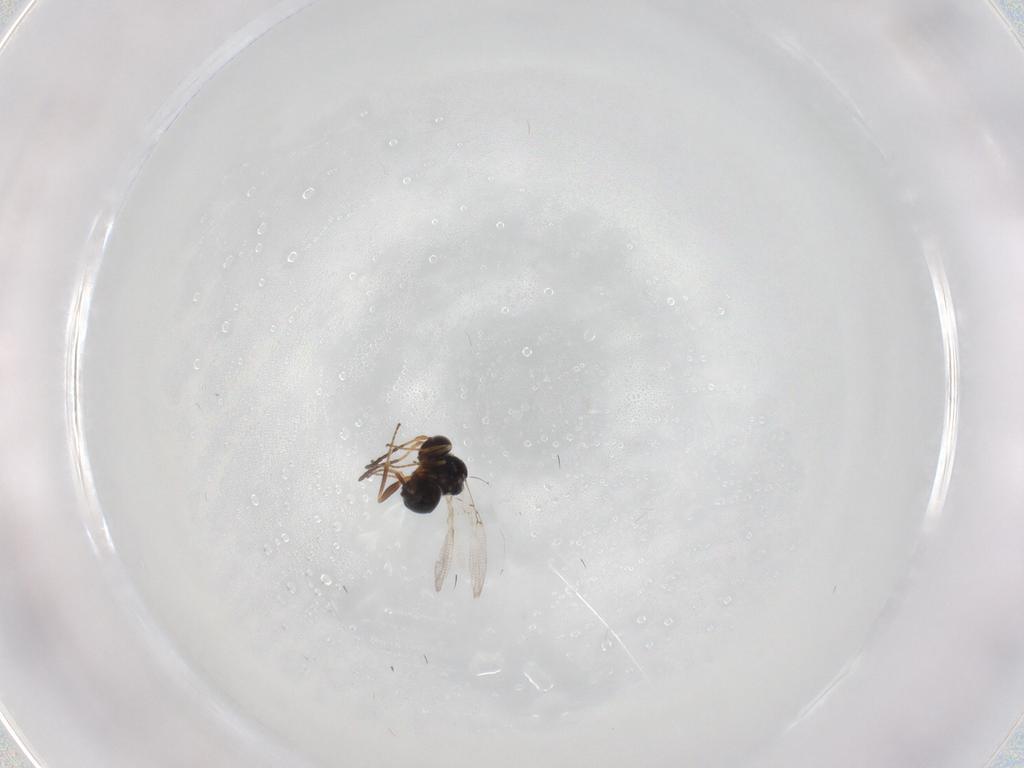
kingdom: Animalia
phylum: Arthropoda
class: Insecta
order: Hymenoptera
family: Figitidae
